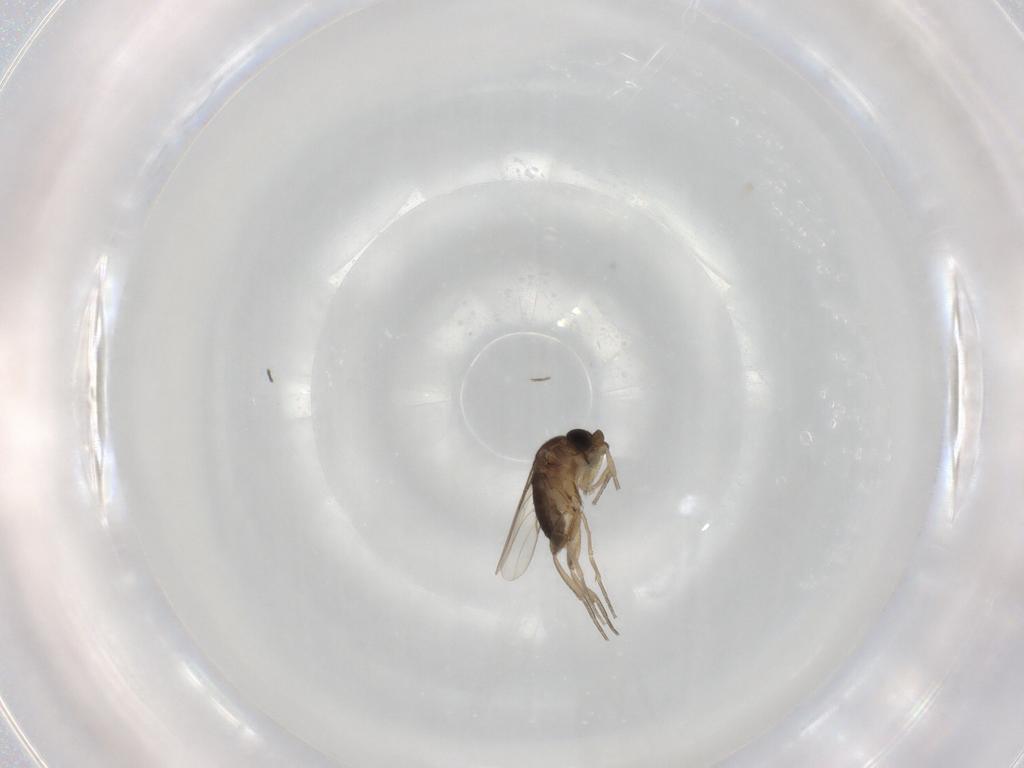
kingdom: Animalia
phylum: Arthropoda
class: Insecta
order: Diptera
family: Phoridae
